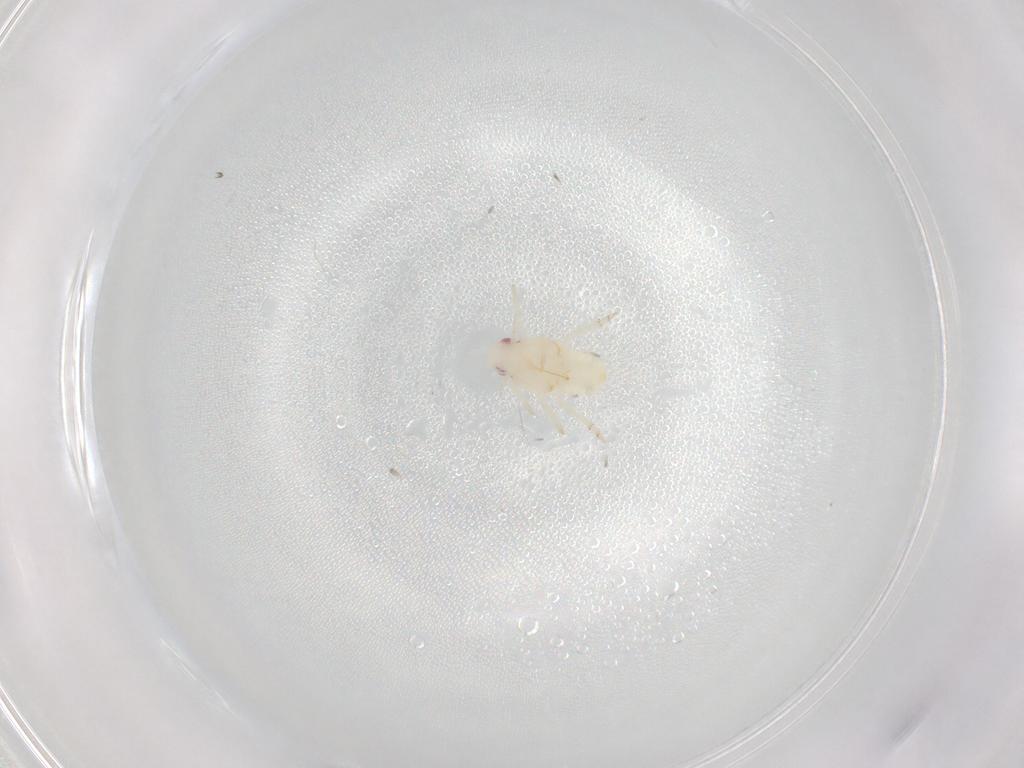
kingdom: Animalia
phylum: Arthropoda
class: Insecta
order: Hemiptera
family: Flatidae
